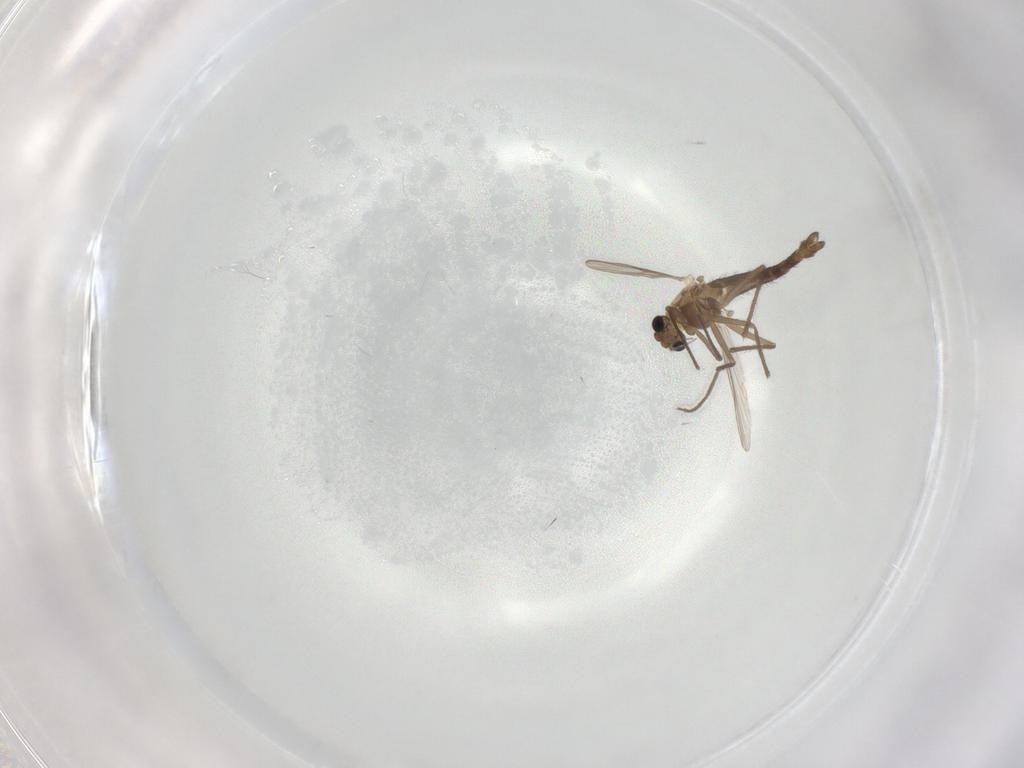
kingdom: Animalia
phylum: Arthropoda
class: Insecta
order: Diptera
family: Chironomidae
